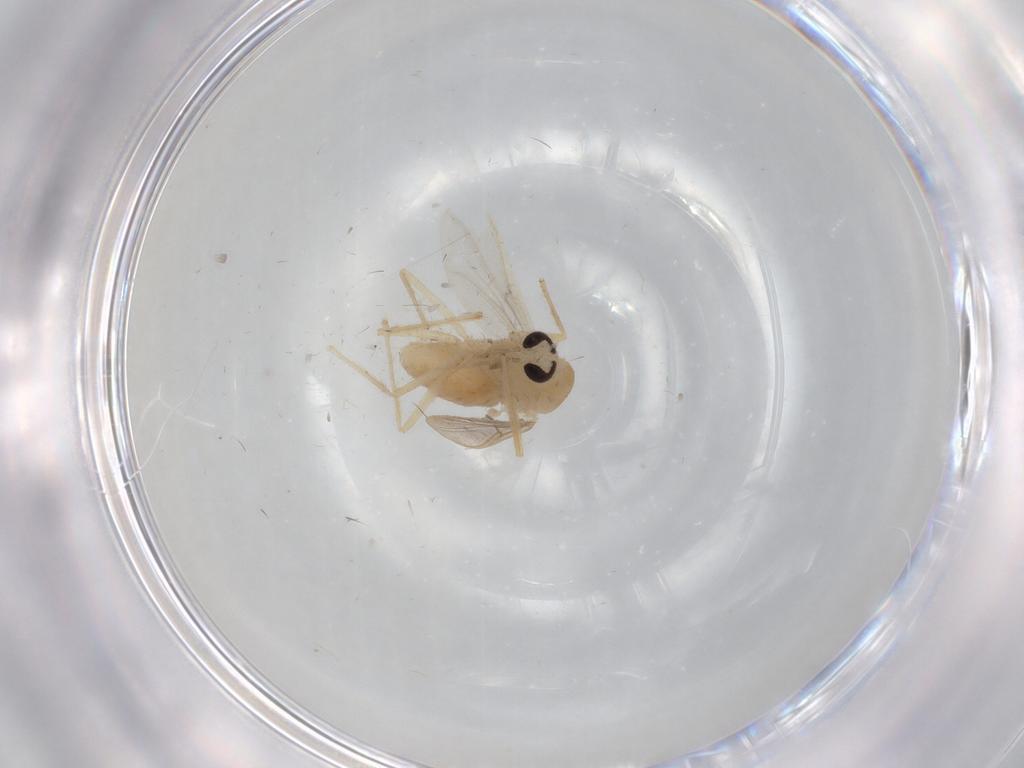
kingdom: Animalia
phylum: Arthropoda
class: Insecta
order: Diptera
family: Chironomidae
